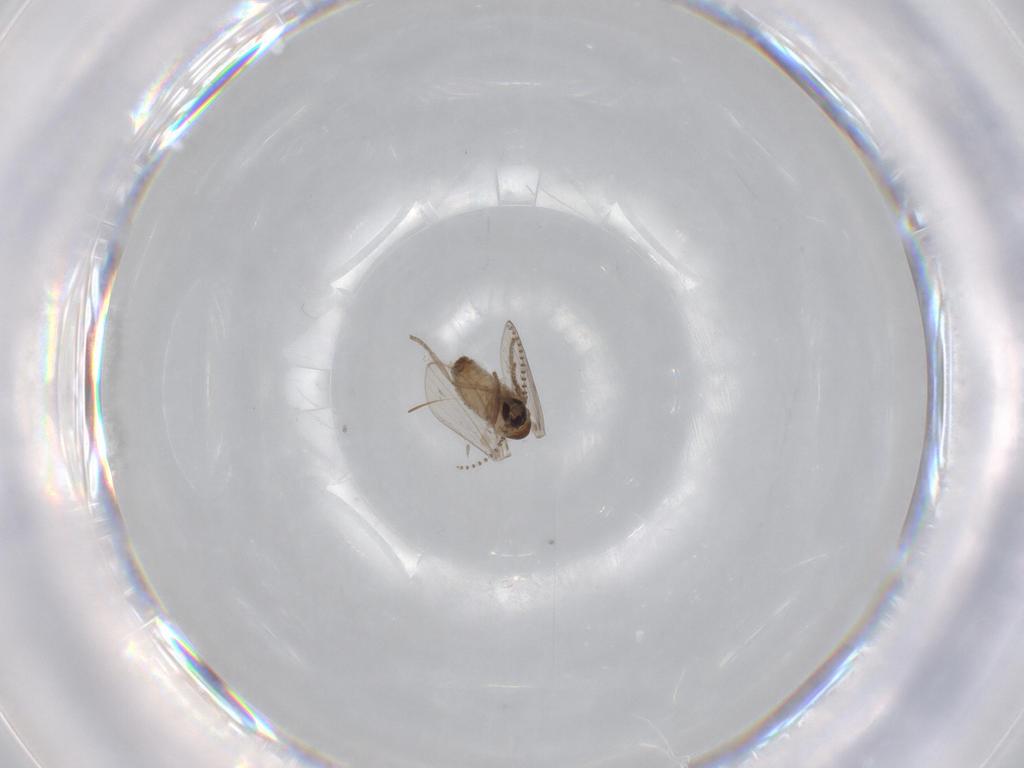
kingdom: Animalia
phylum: Arthropoda
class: Insecta
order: Diptera
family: Psychodidae
